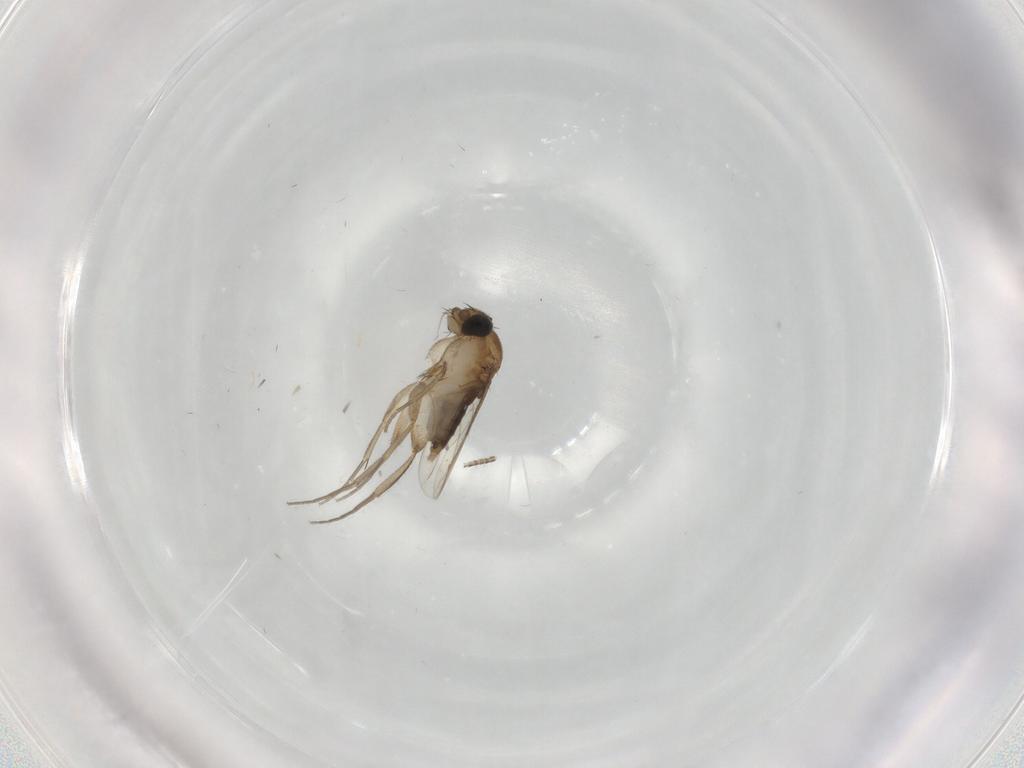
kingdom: Animalia
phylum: Arthropoda
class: Insecta
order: Diptera
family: Phoridae
